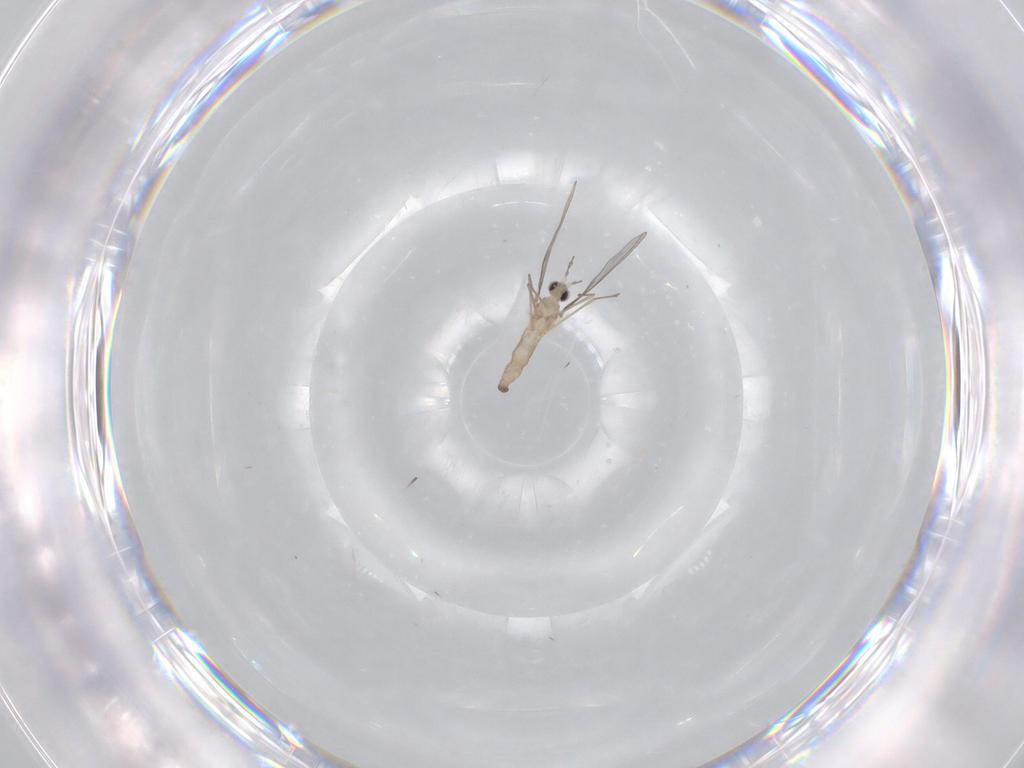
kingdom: Animalia
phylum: Arthropoda
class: Insecta
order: Diptera
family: Cecidomyiidae
